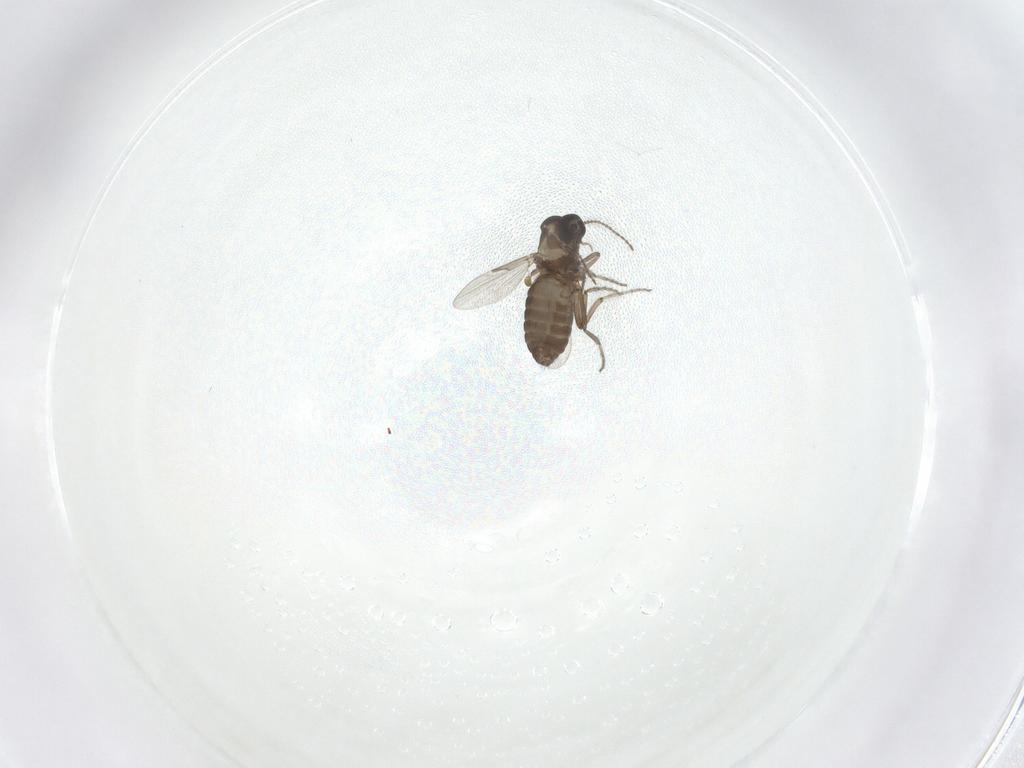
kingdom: Animalia
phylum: Arthropoda
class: Insecta
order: Diptera
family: Ceratopogonidae
